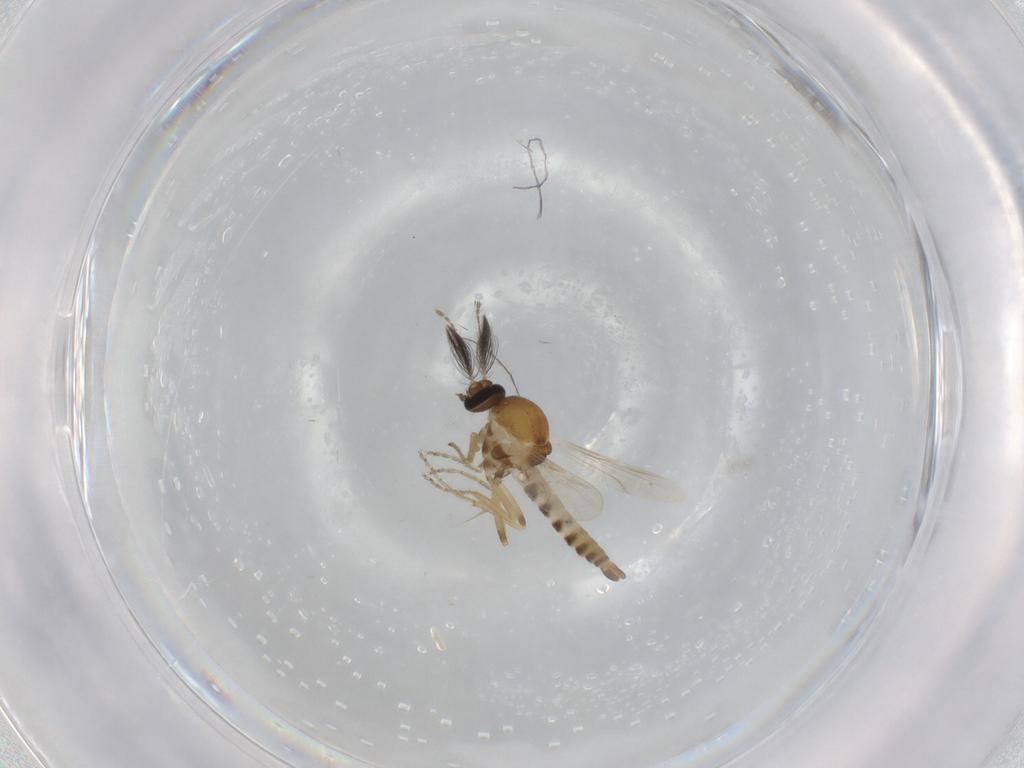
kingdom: Animalia
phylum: Arthropoda
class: Insecta
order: Diptera
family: Ceratopogonidae
